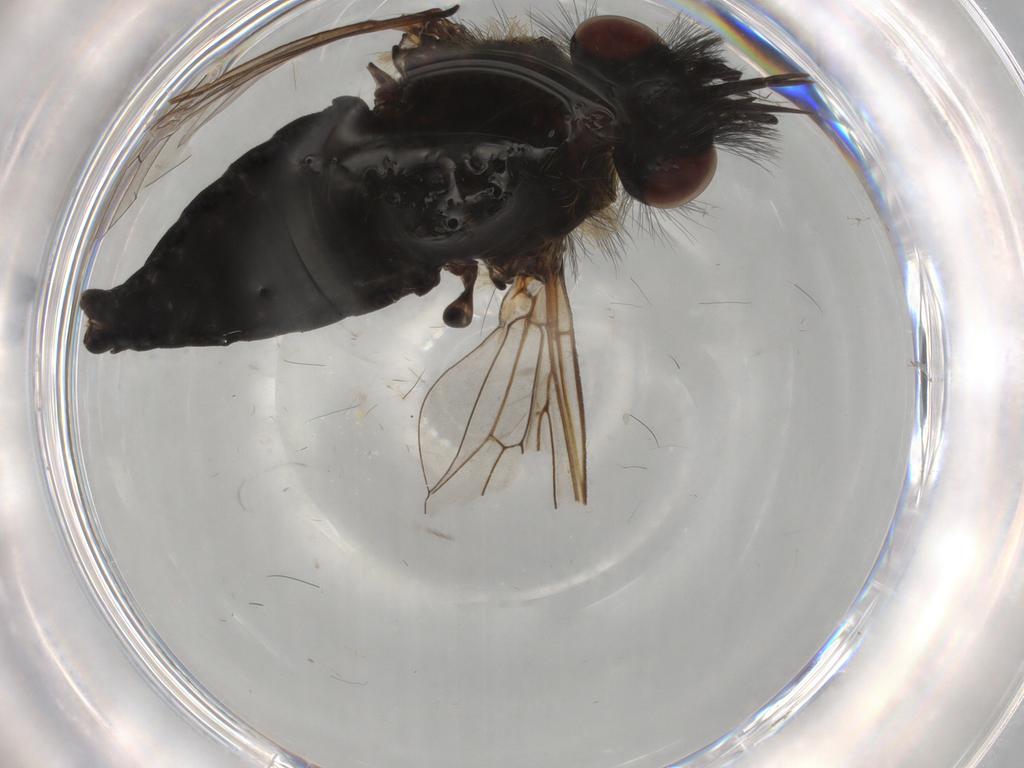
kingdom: Animalia
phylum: Arthropoda
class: Insecta
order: Diptera
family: Bombyliidae
